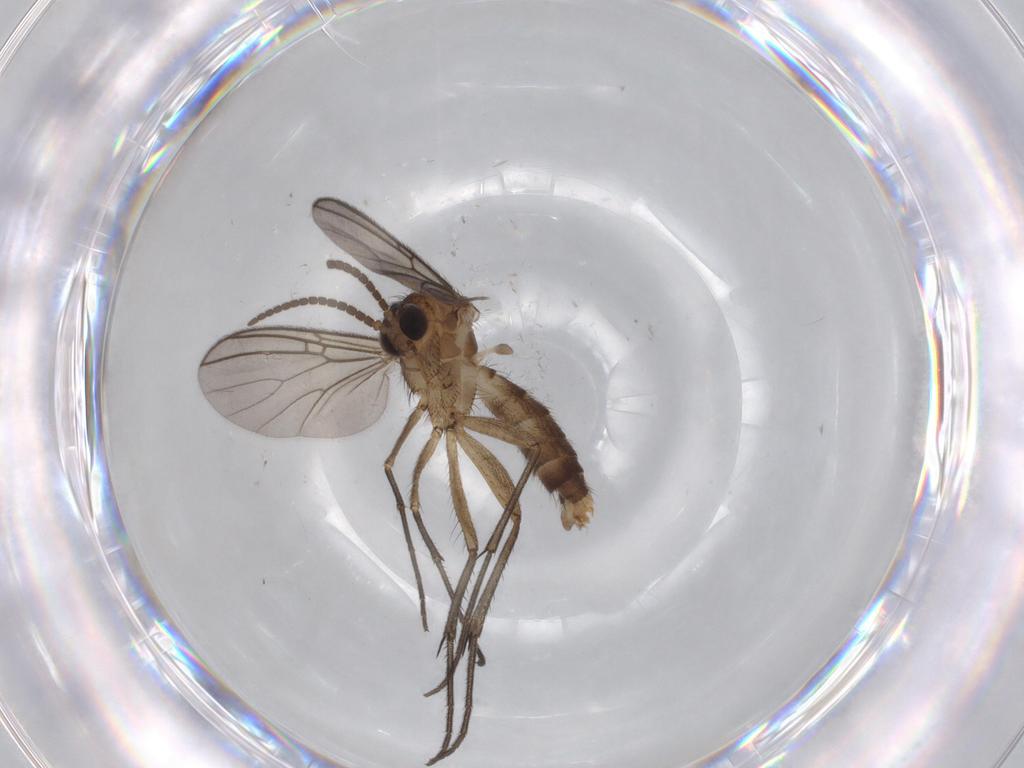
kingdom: Animalia
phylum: Arthropoda
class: Insecta
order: Diptera
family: Psychodidae
